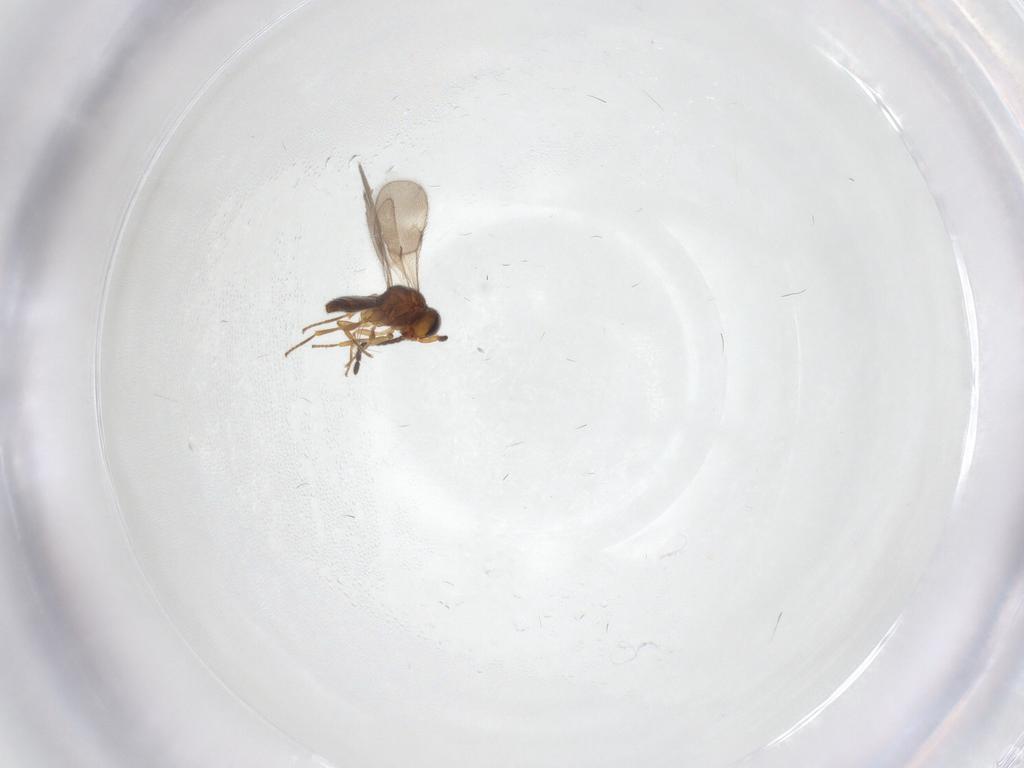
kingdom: Animalia
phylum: Arthropoda
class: Insecta
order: Hymenoptera
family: Scelionidae
